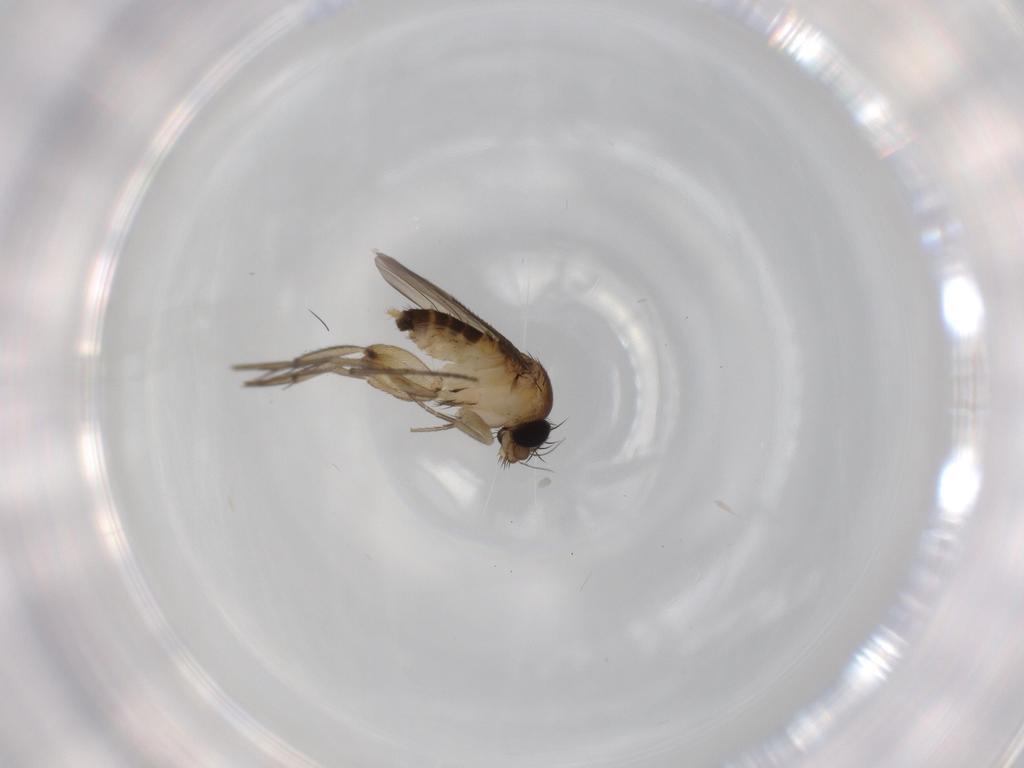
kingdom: Animalia
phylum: Arthropoda
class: Insecta
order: Diptera
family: Phoridae
